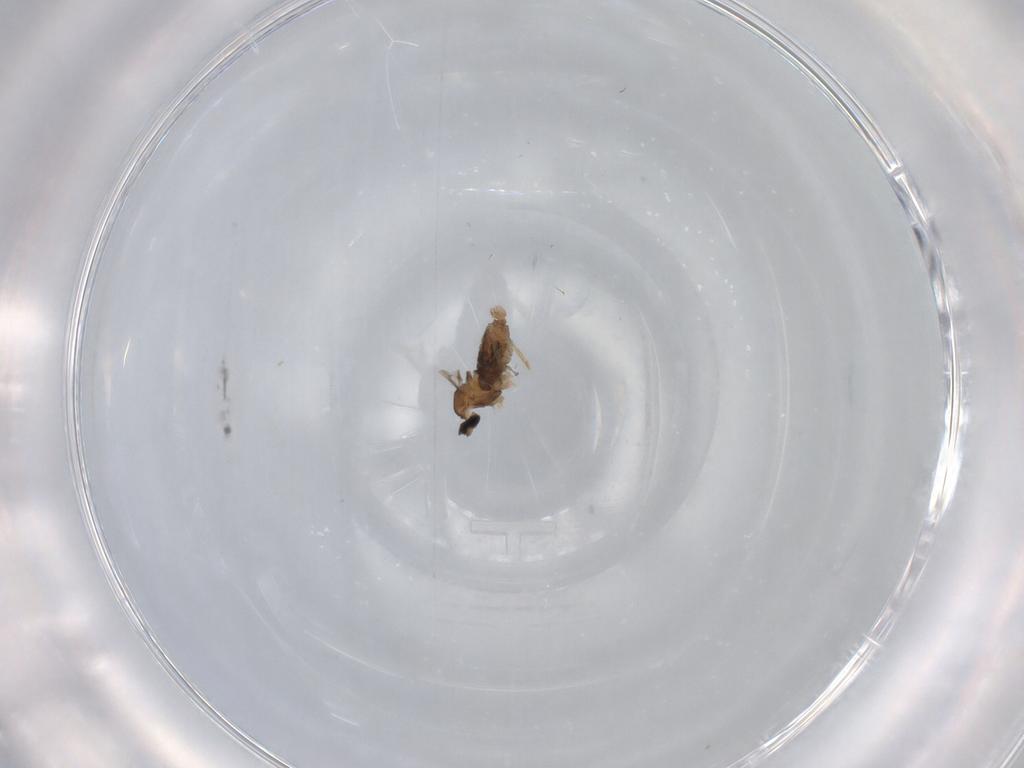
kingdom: Animalia
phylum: Arthropoda
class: Insecta
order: Diptera
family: Cecidomyiidae
